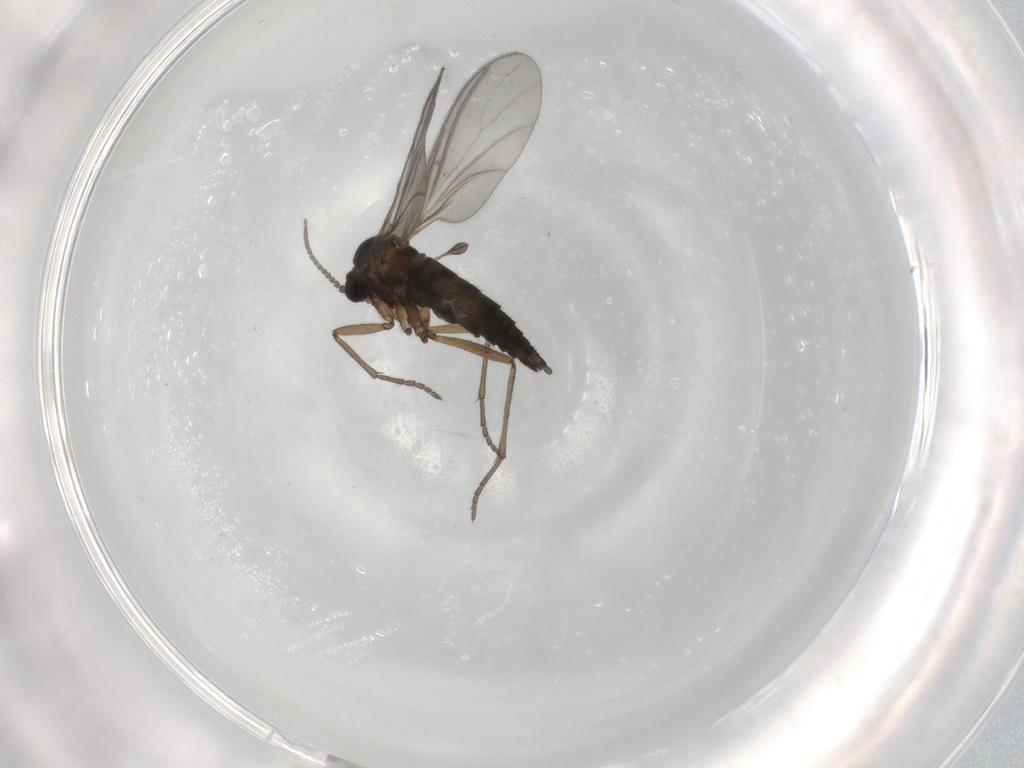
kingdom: Animalia
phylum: Arthropoda
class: Insecta
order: Diptera
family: Sciaridae
